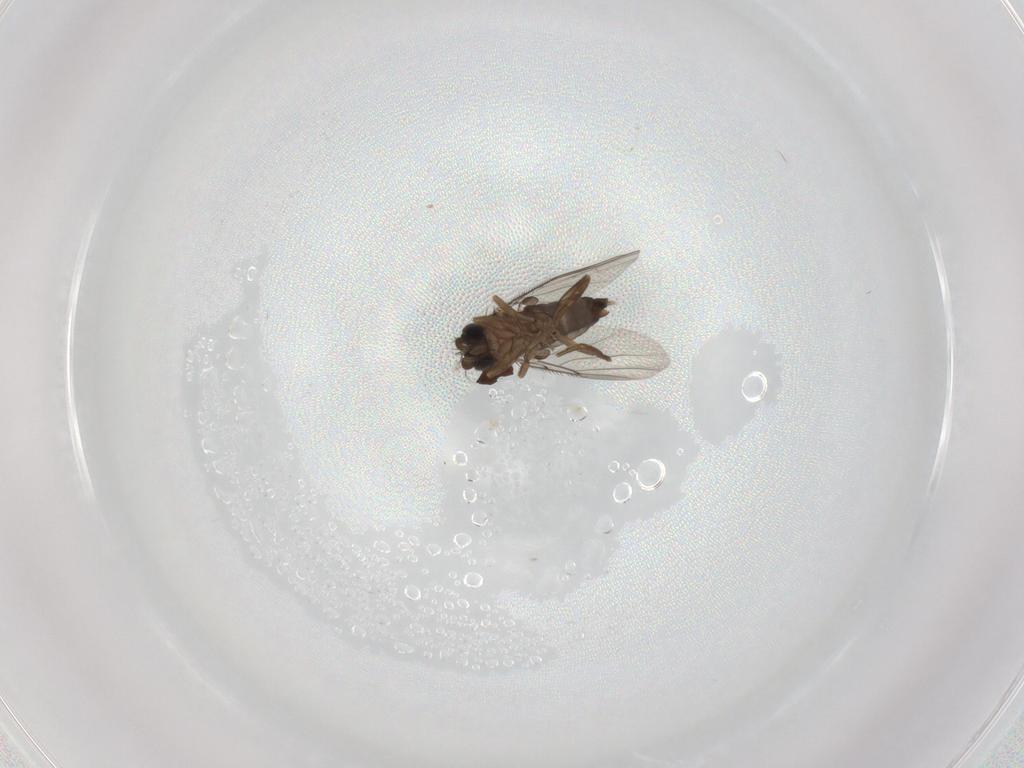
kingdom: Animalia
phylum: Arthropoda
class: Insecta
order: Diptera
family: Phoridae
